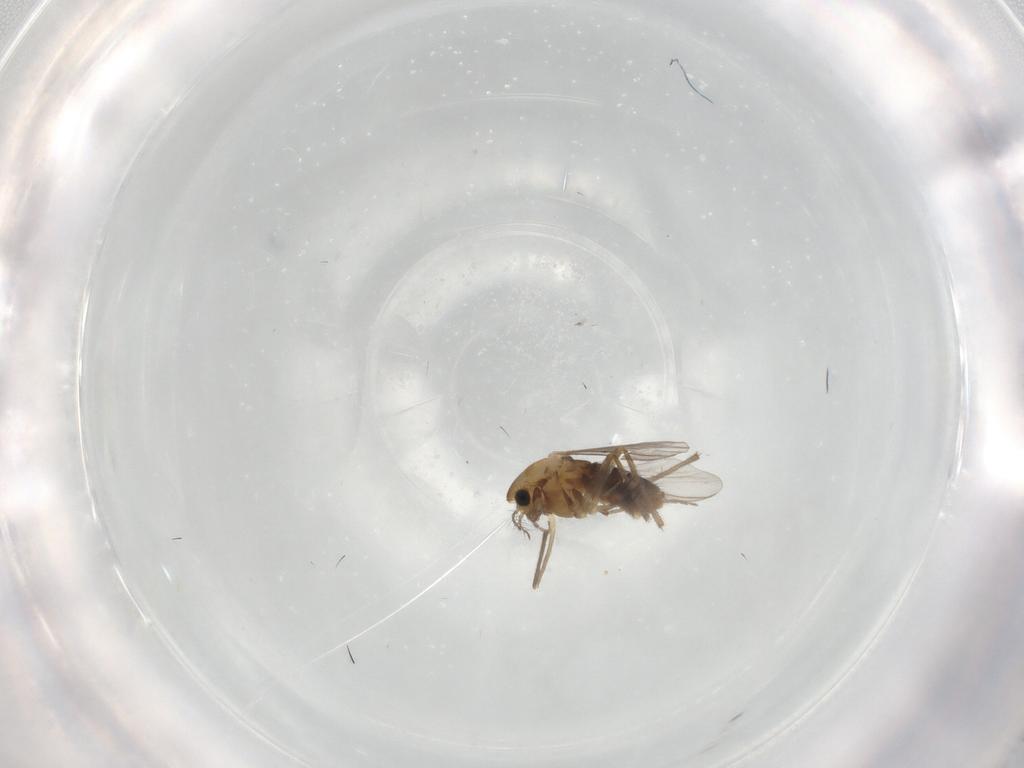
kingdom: Animalia
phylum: Arthropoda
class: Insecta
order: Diptera
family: Chironomidae
